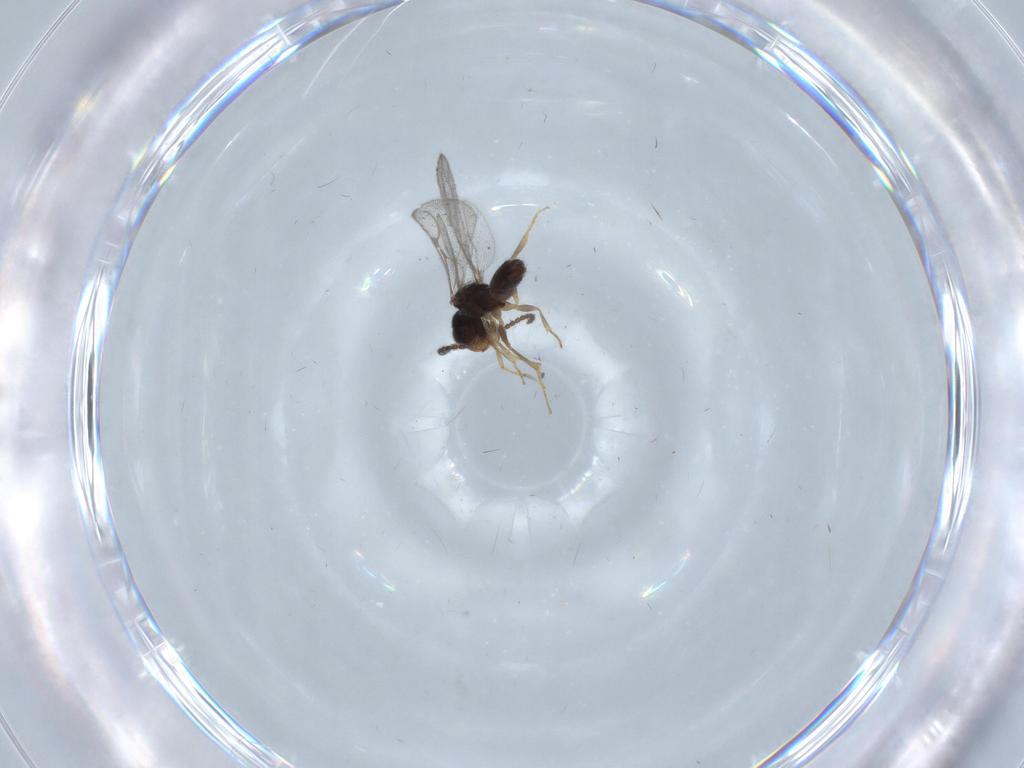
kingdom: Animalia
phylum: Arthropoda
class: Insecta
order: Hymenoptera
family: Bethylidae
